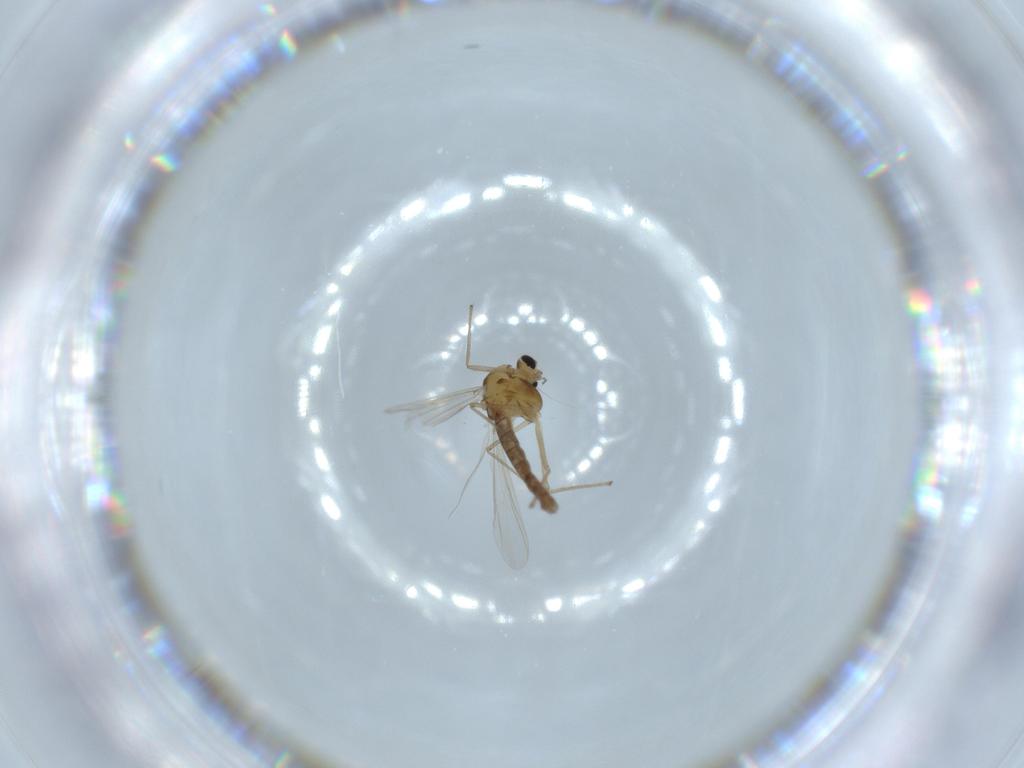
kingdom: Animalia
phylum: Arthropoda
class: Insecta
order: Diptera
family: Chironomidae
